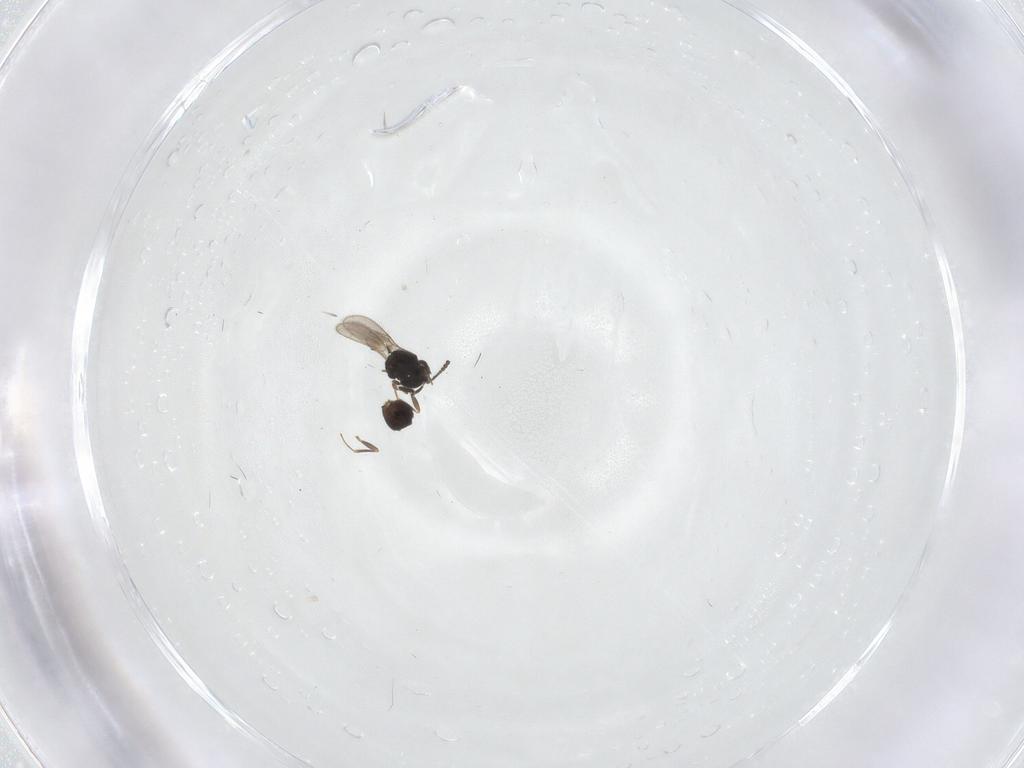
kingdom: Animalia
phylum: Arthropoda
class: Insecta
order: Hymenoptera
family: Scelionidae
